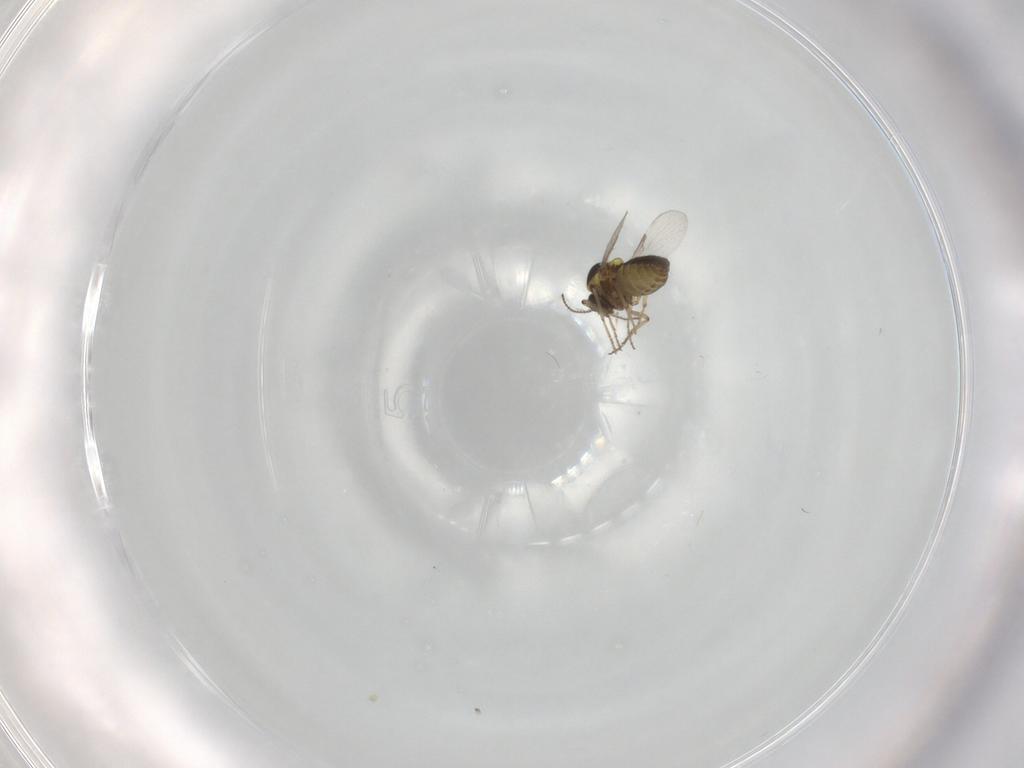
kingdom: Animalia
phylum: Arthropoda
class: Insecta
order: Diptera
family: Ceratopogonidae
